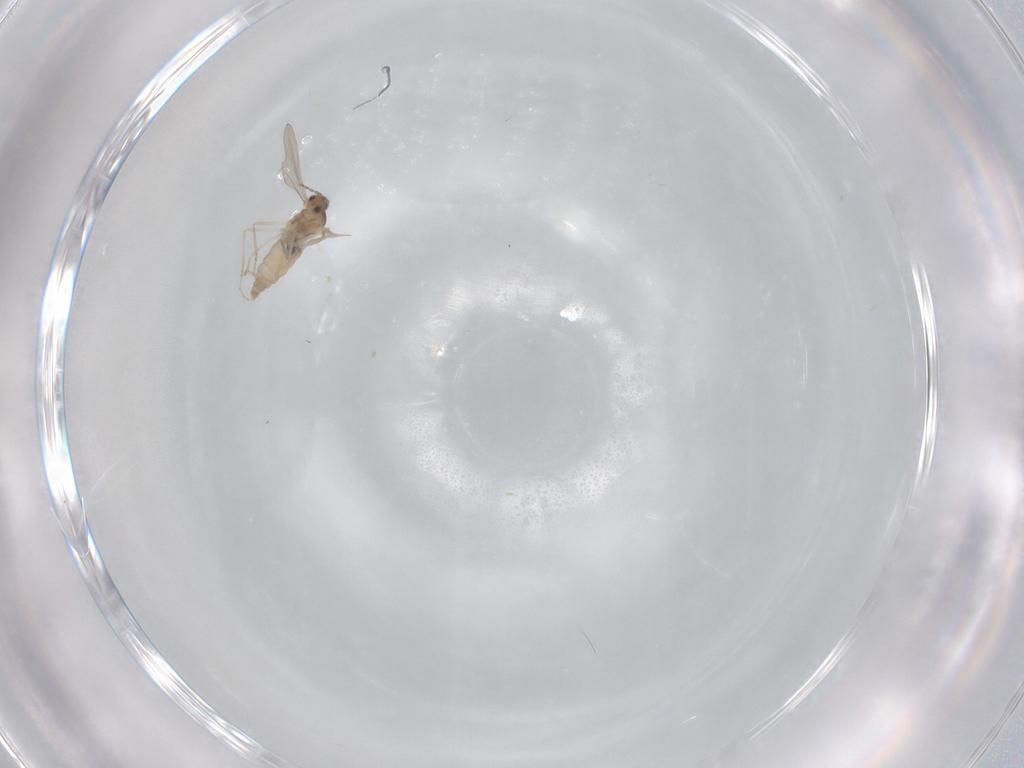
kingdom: Animalia
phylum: Arthropoda
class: Insecta
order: Diptera
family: Cecidomyiidae
